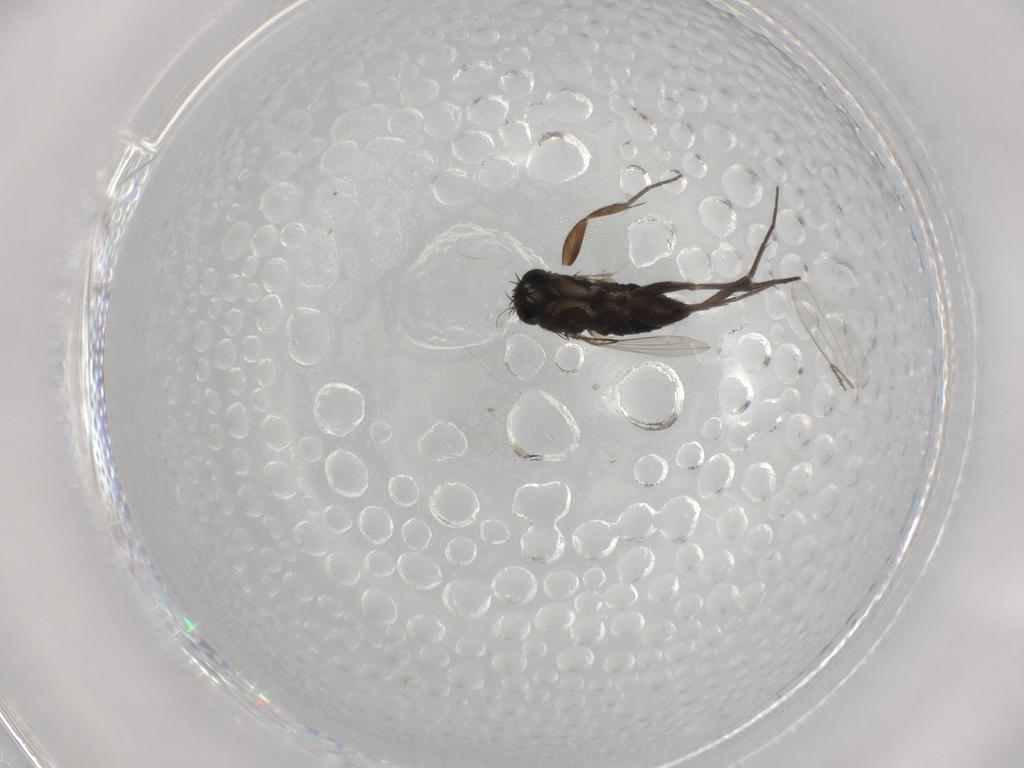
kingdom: Animalia
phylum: Arthropoda
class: Insecta
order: Diptera
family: Phoridae
